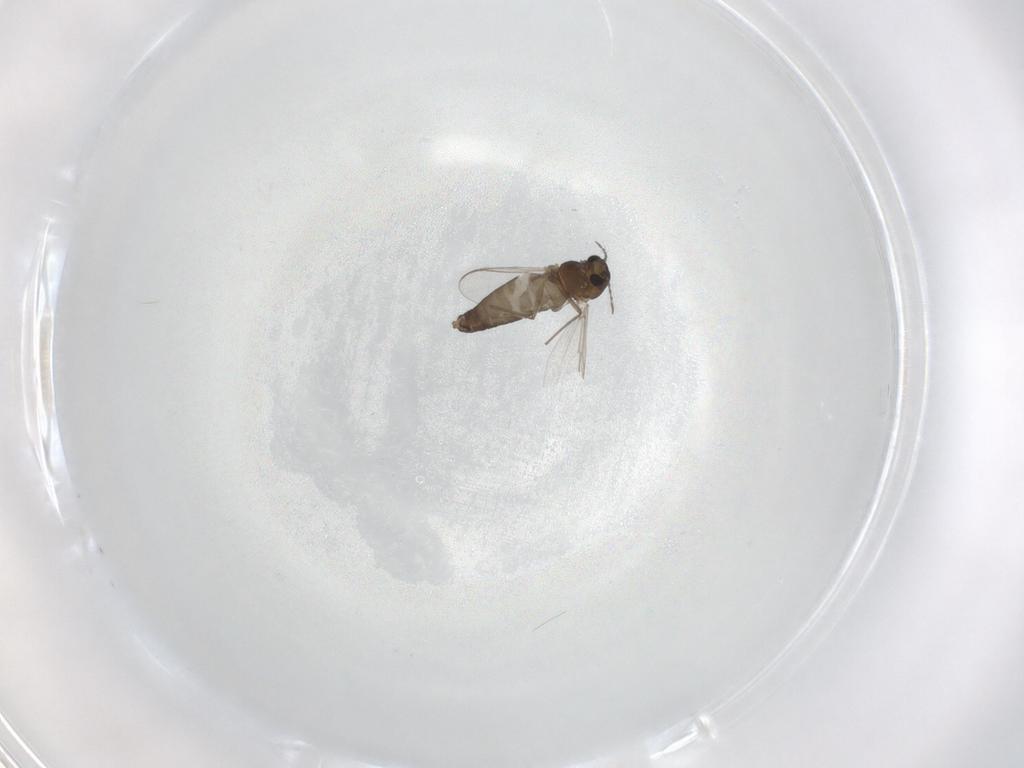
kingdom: Animalia
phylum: Arthropoda
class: Insecta
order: Diptera
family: Chironomidae
